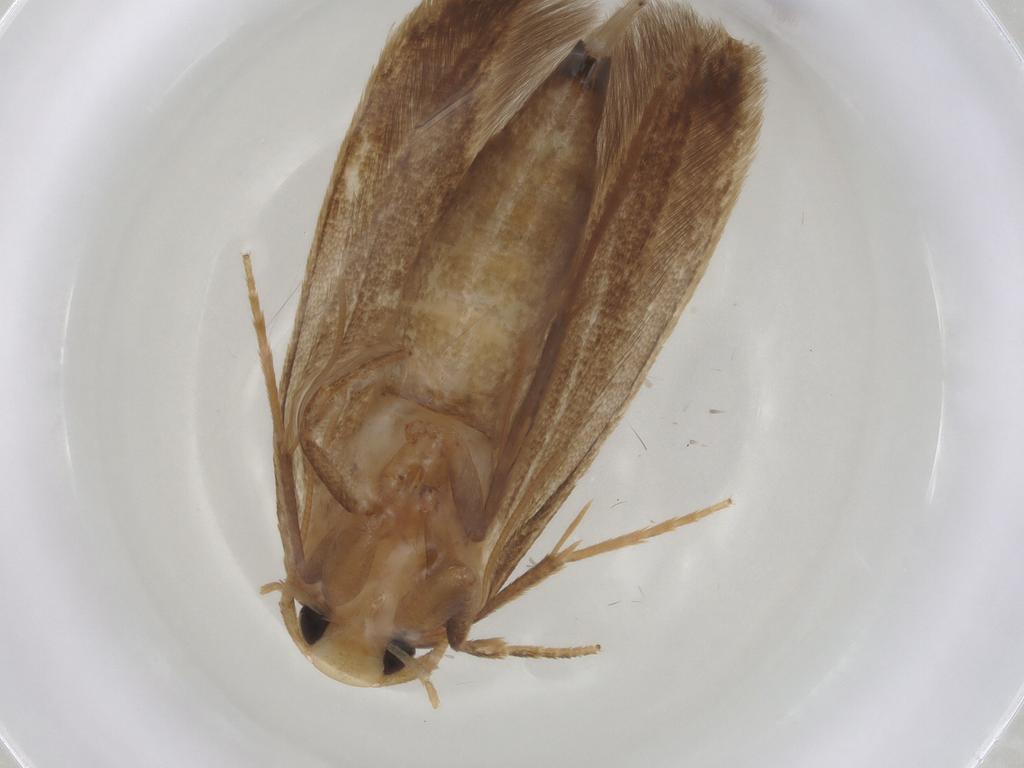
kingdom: Animalia
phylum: Arthropoda
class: Insecta
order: Lepidoptera
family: Tineidae
